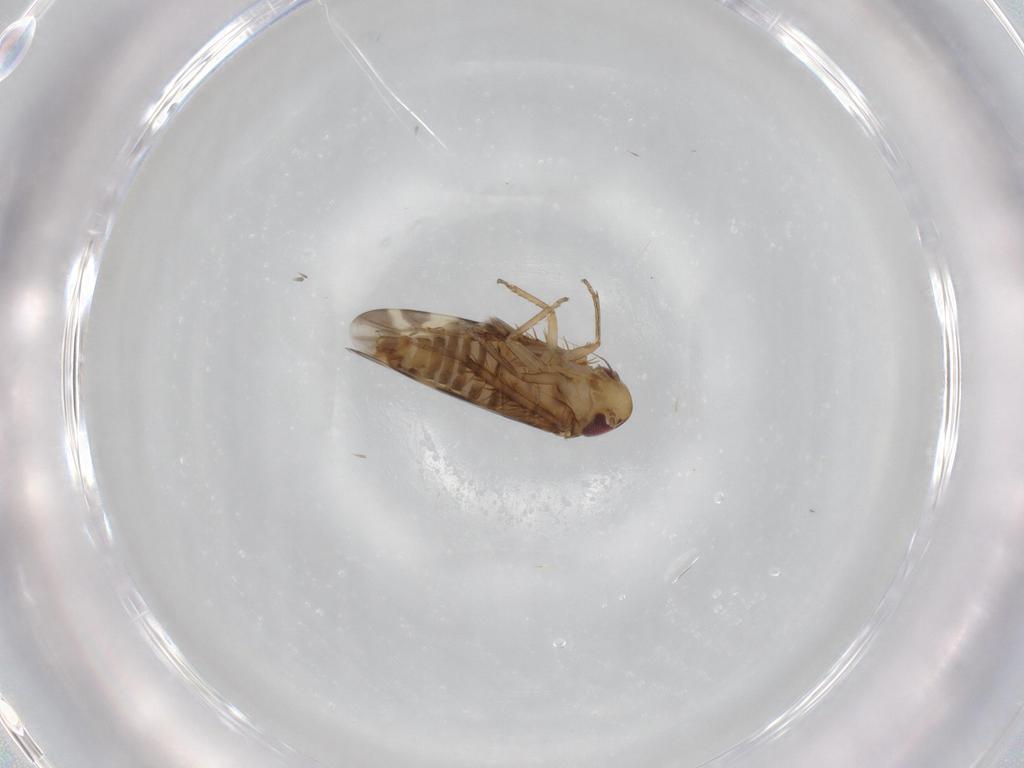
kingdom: Animalia
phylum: Arthropoda
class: Insecta
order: Hemiptera
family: Cicadellidae
